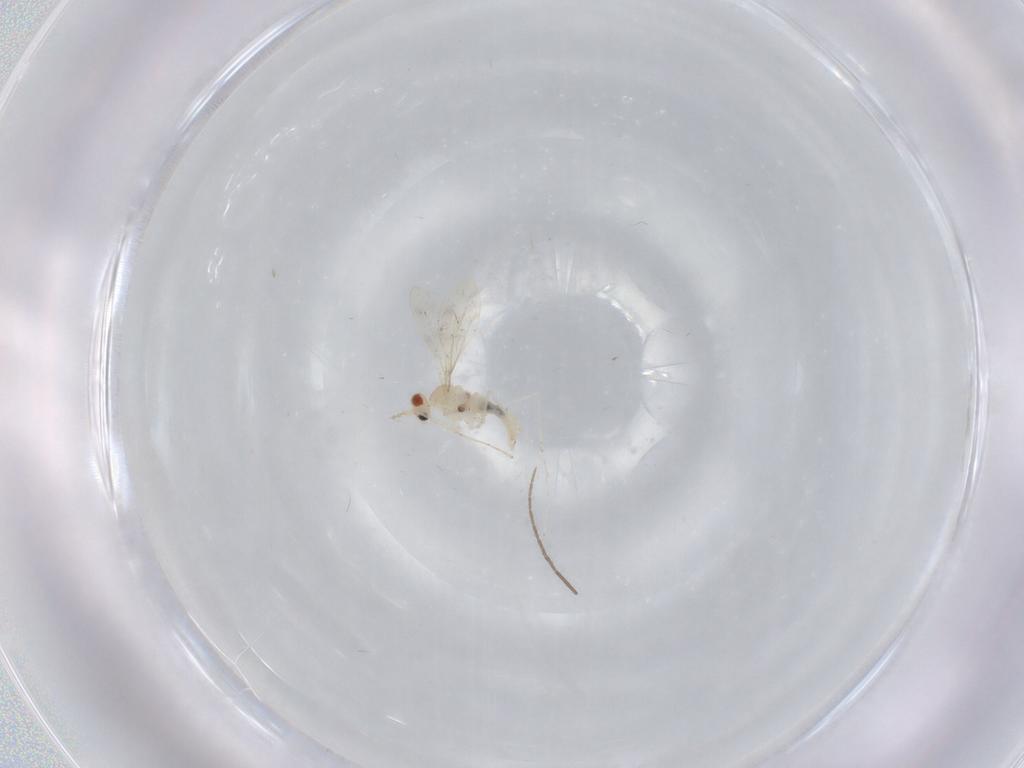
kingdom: Animalia
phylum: Arthropoda
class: Insecta
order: Diptera
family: Cecidomyiidae
